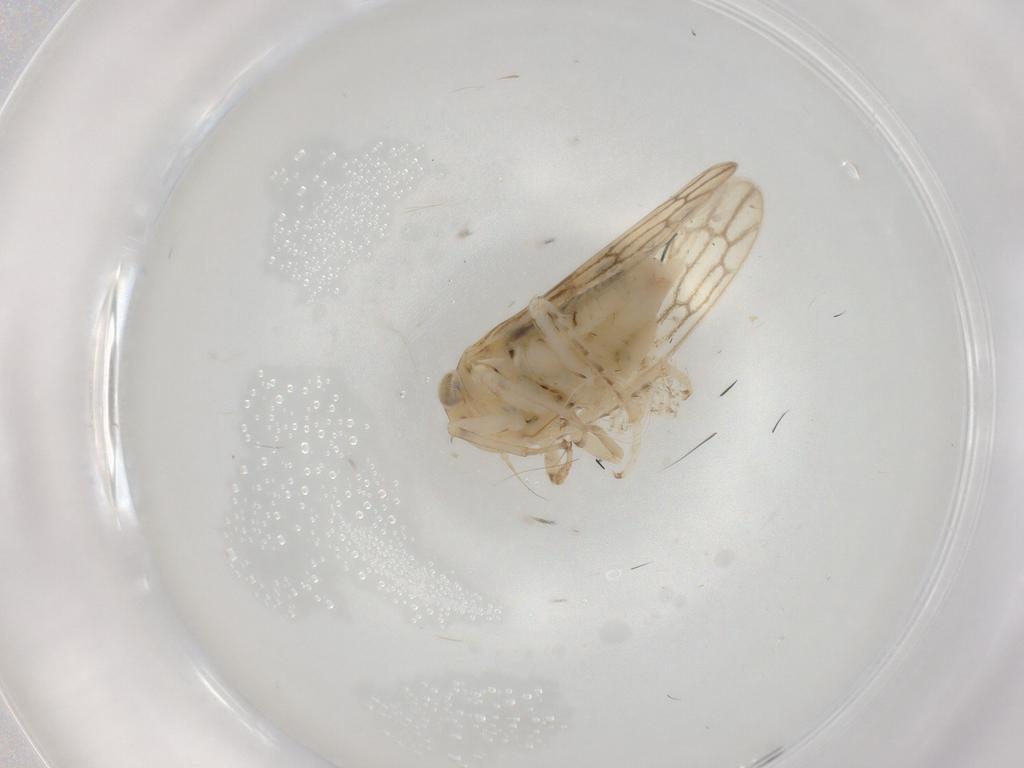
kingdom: Animalia
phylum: Arthropoda
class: Insecta
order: Hemiptera
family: Cicadellidae
